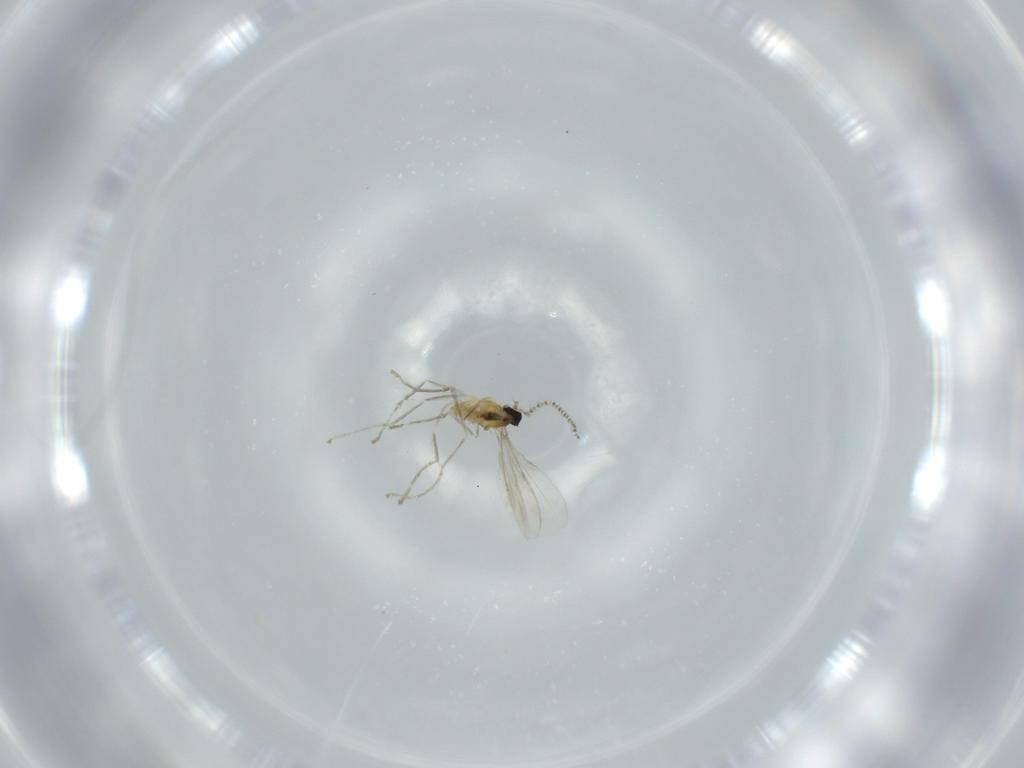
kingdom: Animalia
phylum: Arthropoda
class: Insecta
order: Diptera
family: Cecidomyiidae
